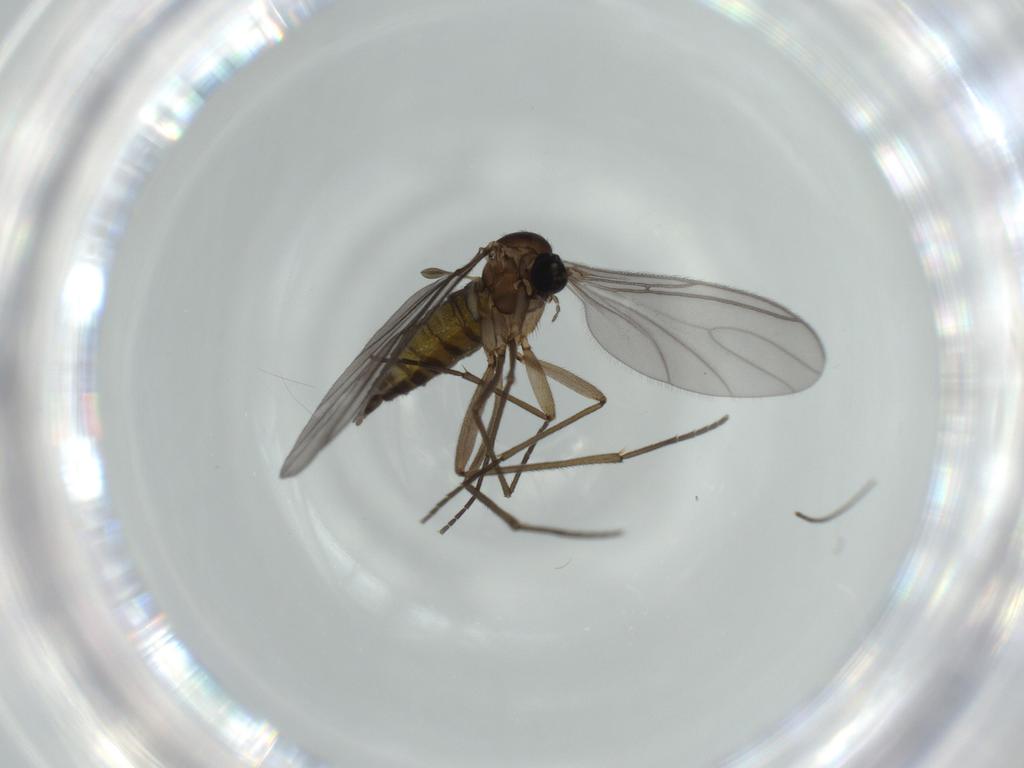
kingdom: Animalia
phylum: Arthropoda
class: Insecta
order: Diptera
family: Sciaridae
